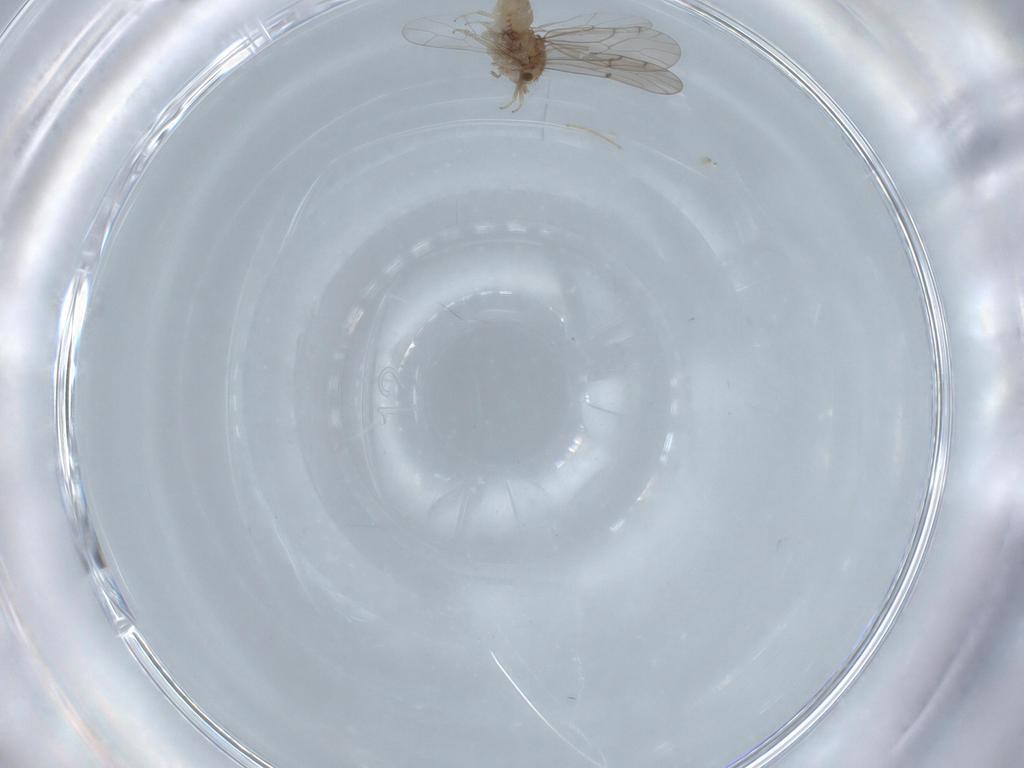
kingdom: Animalia
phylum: Arthropoda
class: Insecta
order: Psocodea
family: Ectopsocidae
